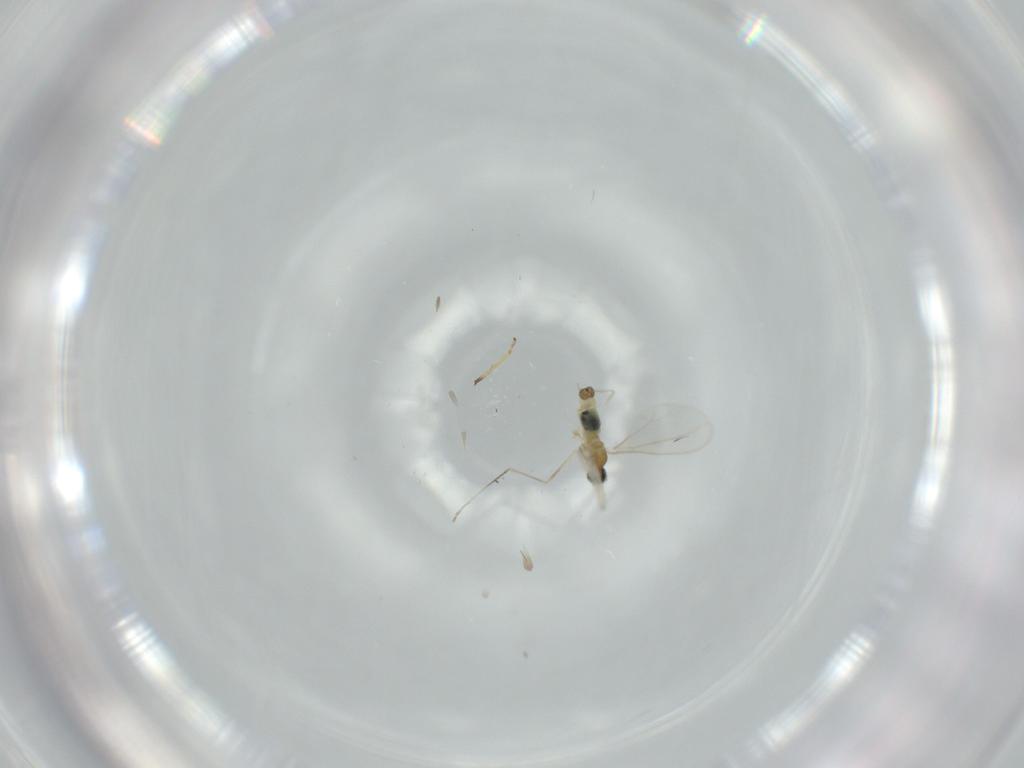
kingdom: Animalia
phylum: Arthropoda
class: Insecta
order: Diptera
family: Cecidomyiidae
